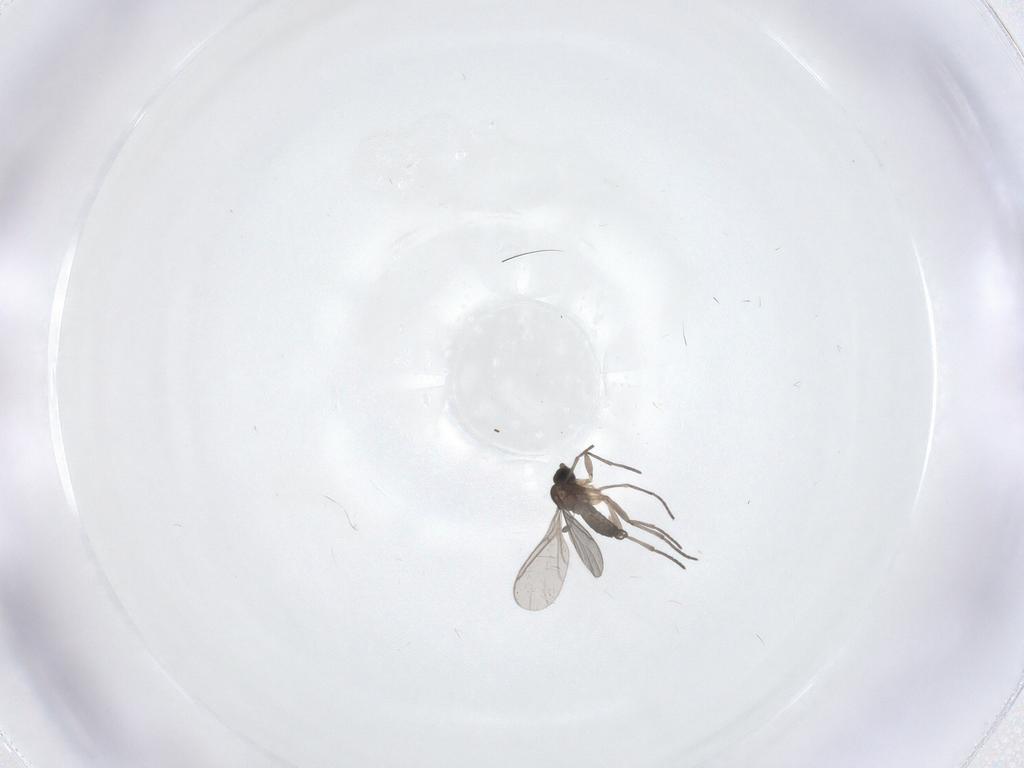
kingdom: Animalia
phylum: Arthropoda
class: Insecta
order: Diptera
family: Sciaridae
